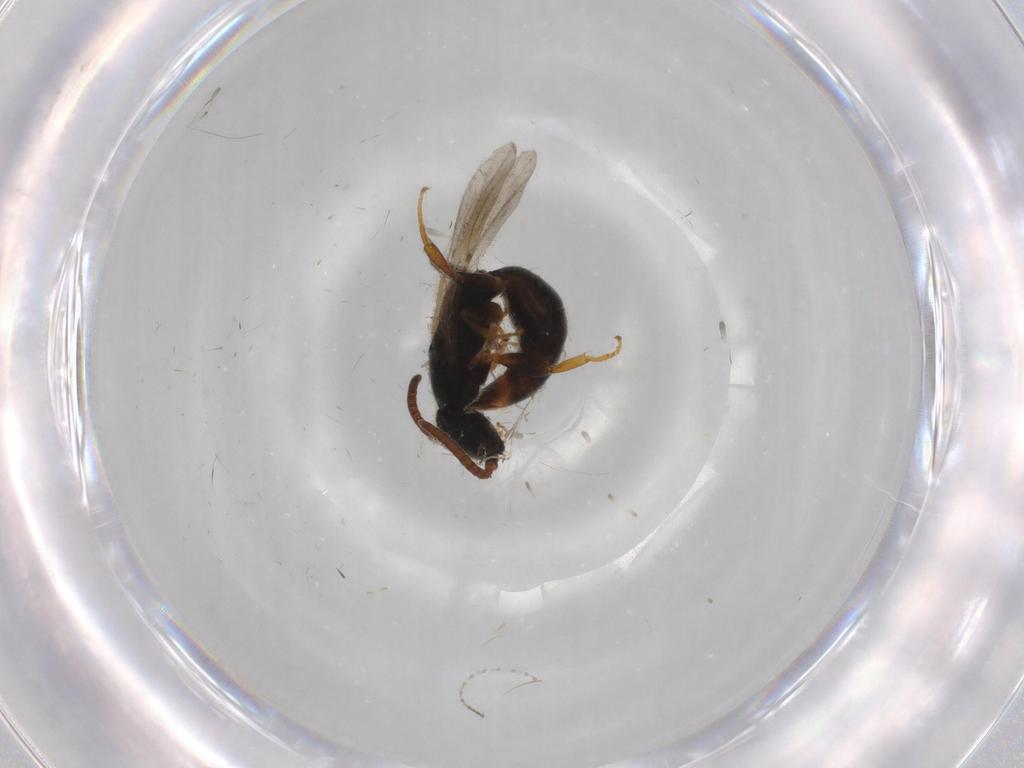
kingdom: Animalia
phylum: Arthropoda
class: Insecta
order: Hymenoptera
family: Bethylidae
